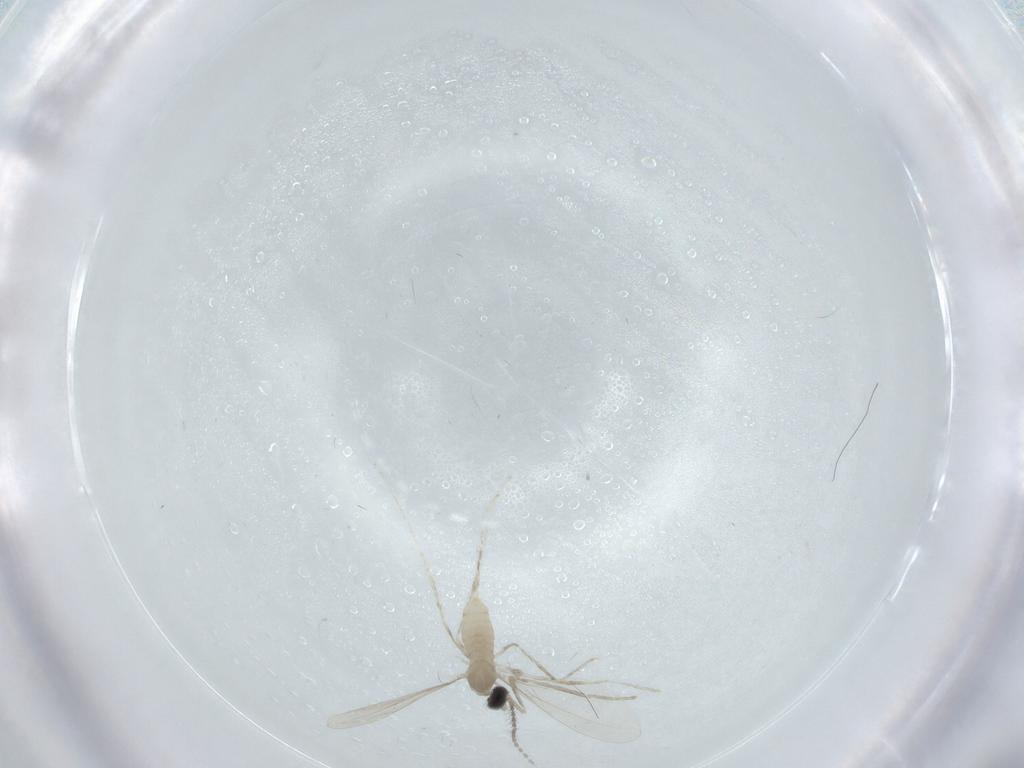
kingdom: Animalia
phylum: Arthropoda
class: Insecta
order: Diptera
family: Cecidomyiidae
